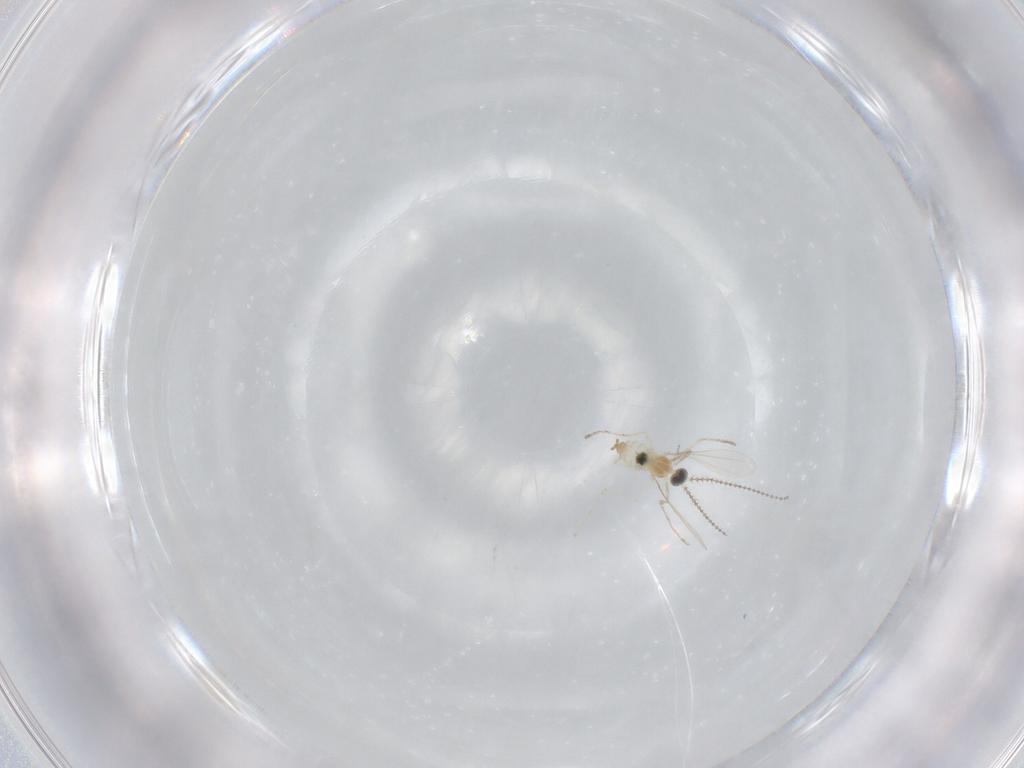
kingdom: Animalia
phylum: Arthropoda
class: Insecta
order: Diptera
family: Cecidomyiidae
